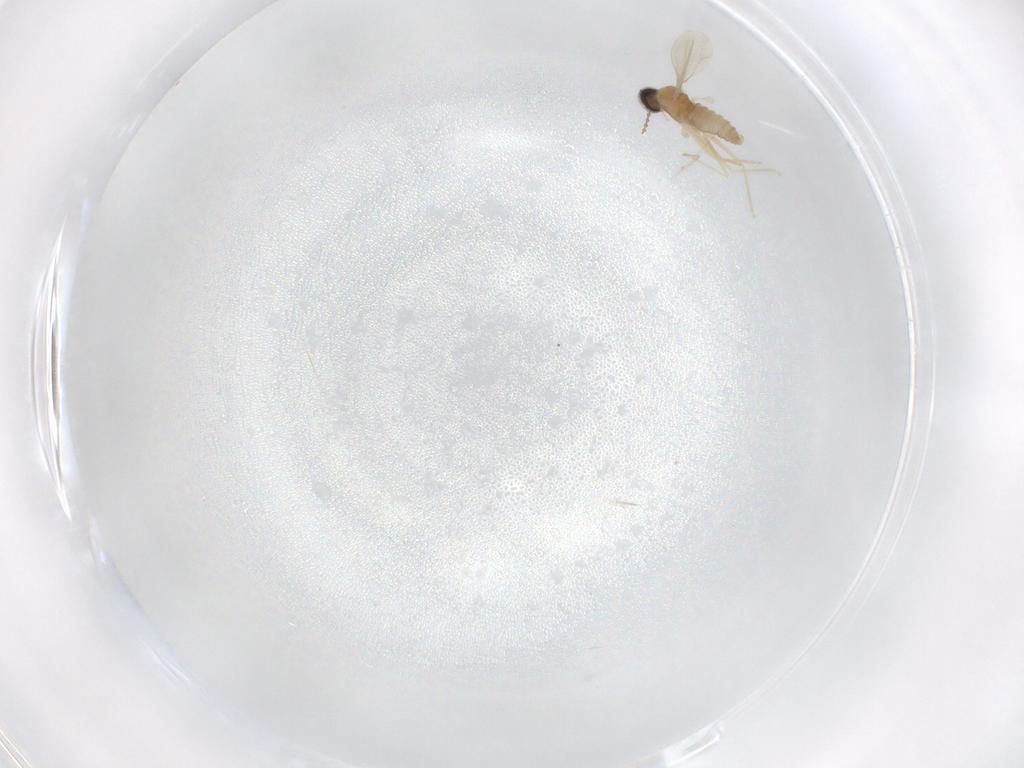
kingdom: Animalia
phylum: Arthropoda
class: Insecta
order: Diptera
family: Cecidomyiidae
